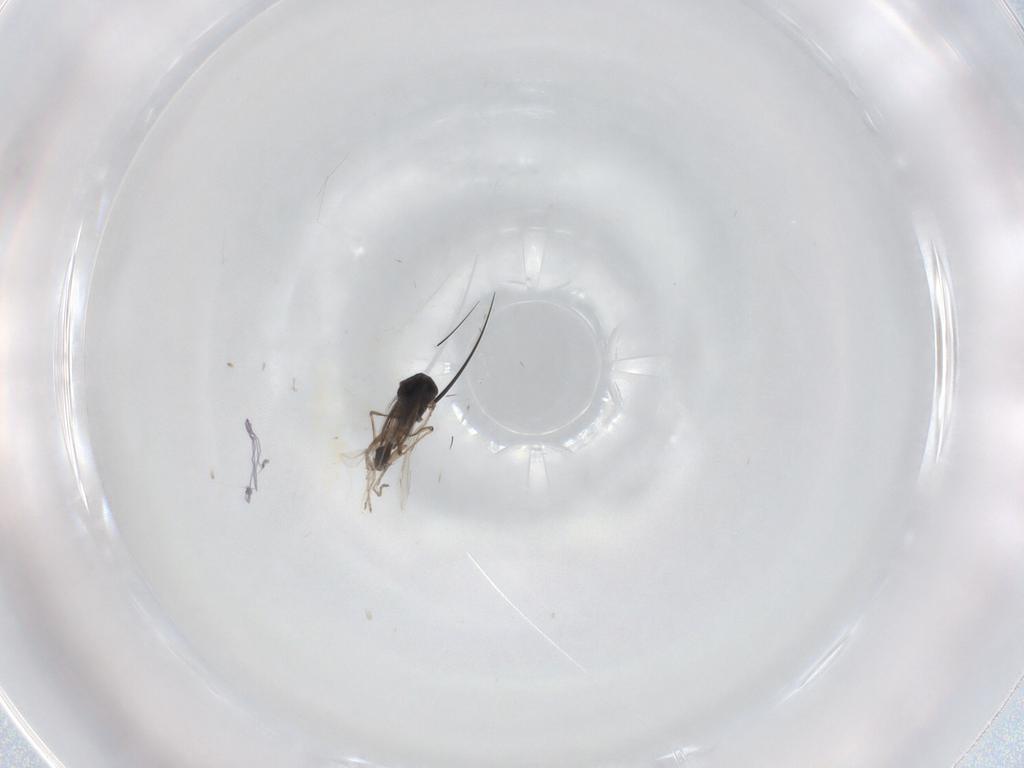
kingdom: Animalia
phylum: Arthropoda
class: Insecta
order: Diptera
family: Ceratopogonidae
